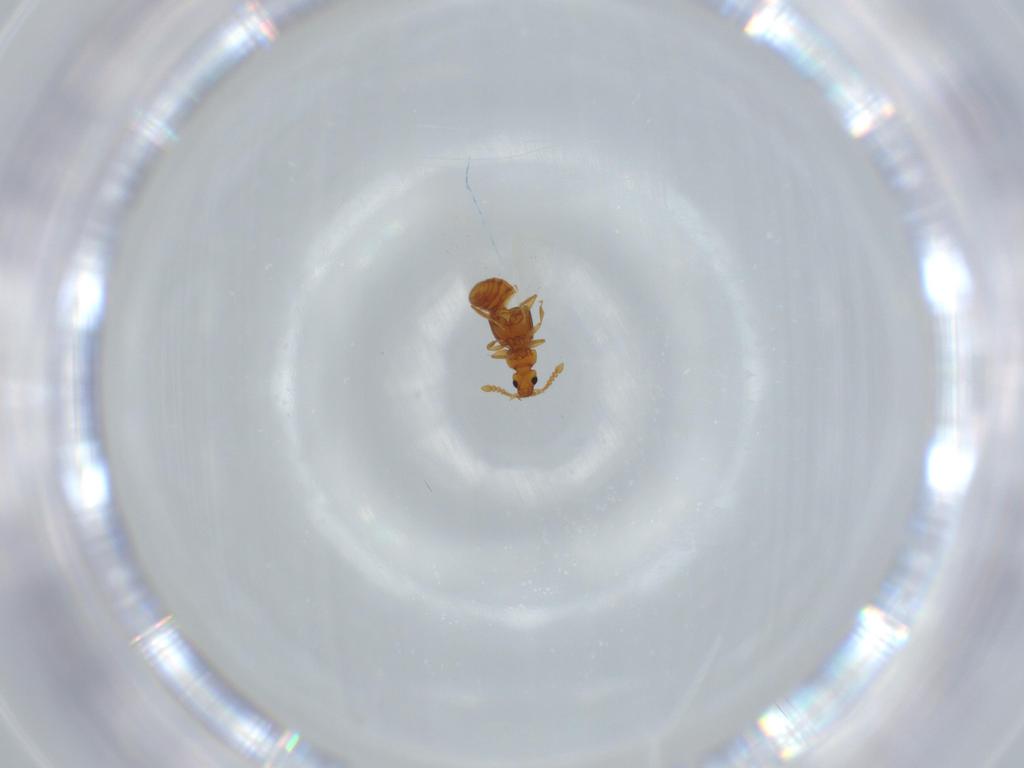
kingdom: Animalia
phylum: Arthropoda
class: Insecta
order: Coleoptera
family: Staphylinidae
